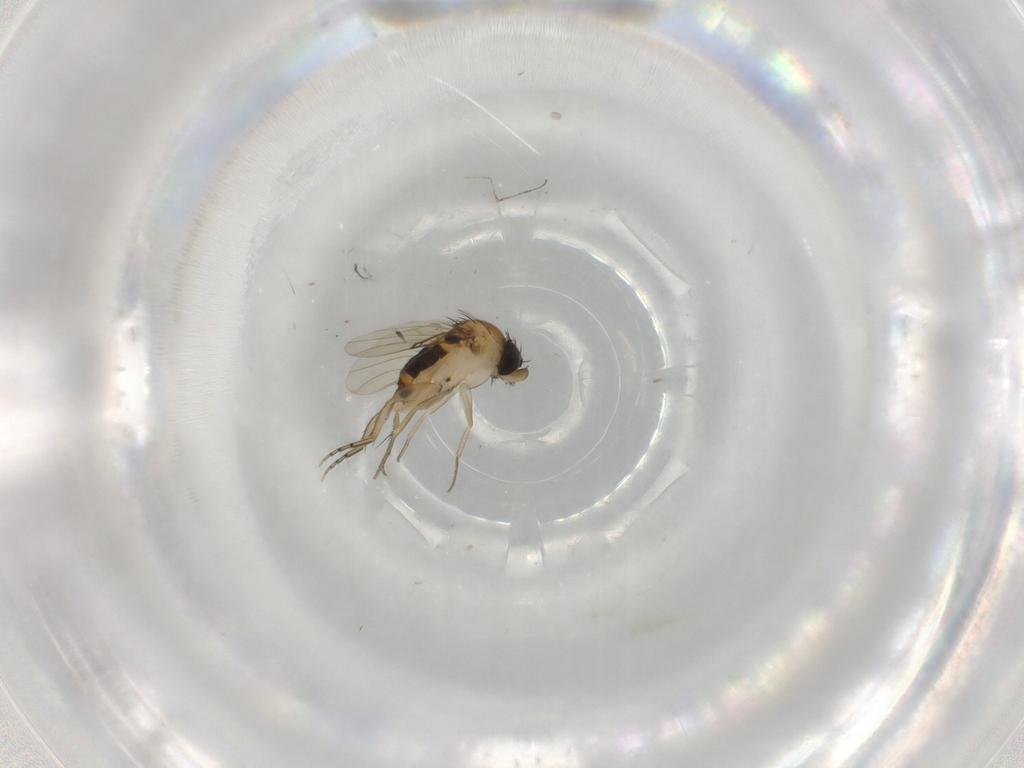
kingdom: Animalia
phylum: Arthropoda
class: Insecta
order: Diptera
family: Phoridae
